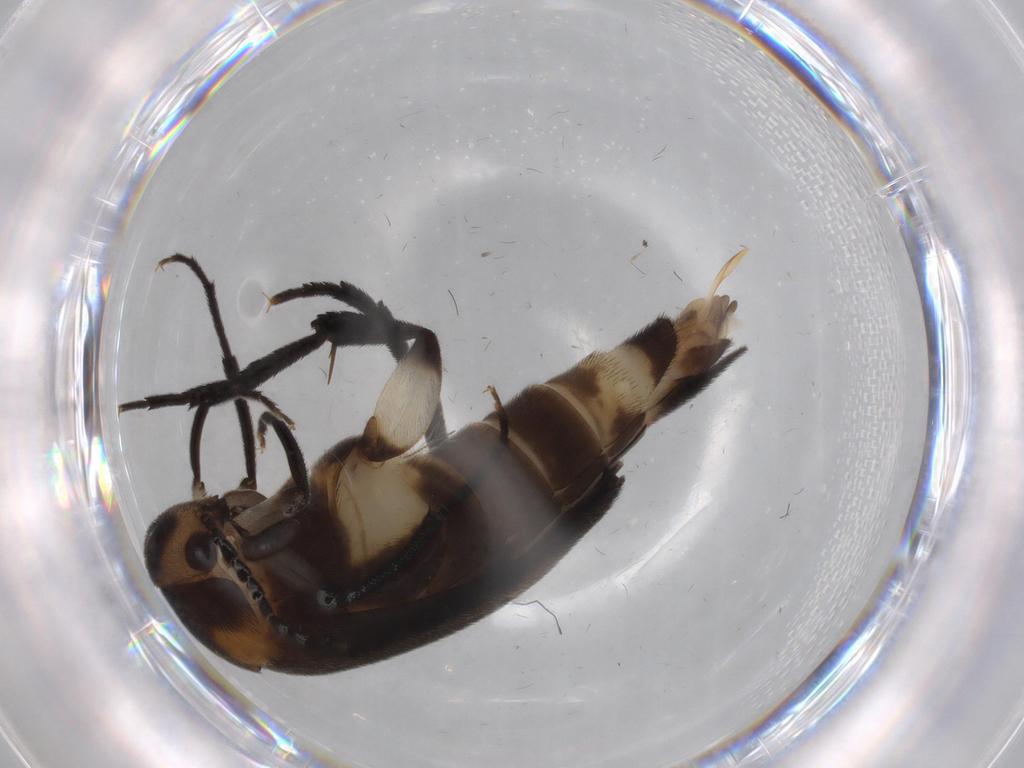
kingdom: Animalia
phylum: Arthropoda
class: Insecta
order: Coleoptera
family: Mordellidae
